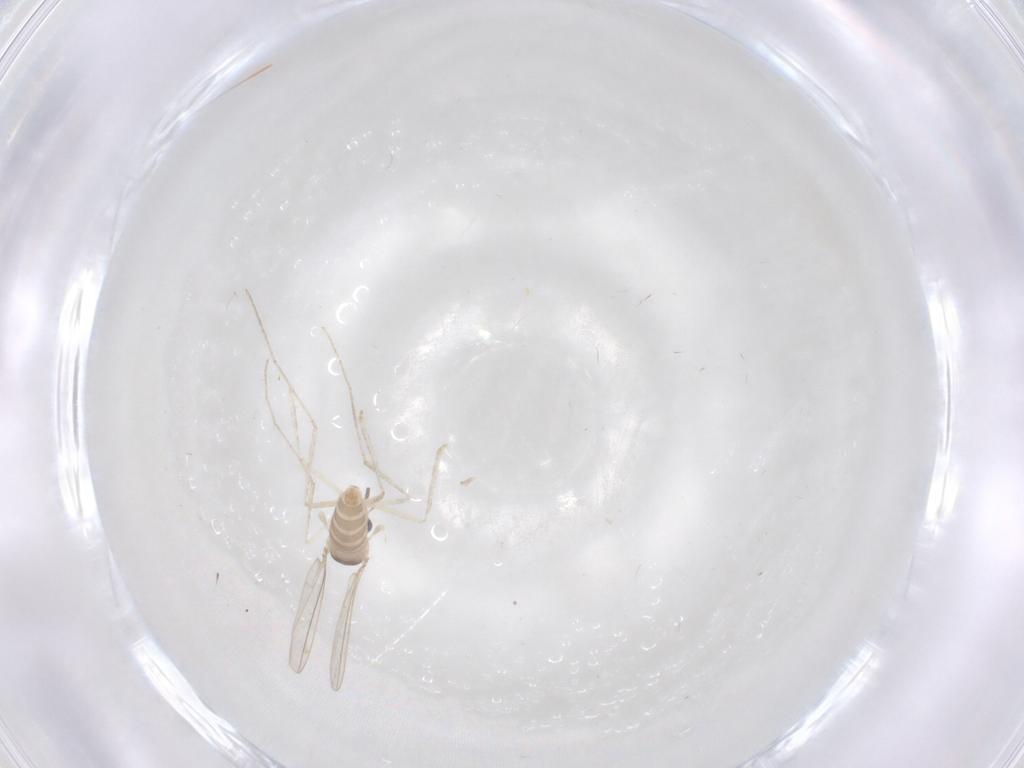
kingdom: Animalia
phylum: Arthropoda
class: Insecta
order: Diptera
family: Cecidomyiidae
